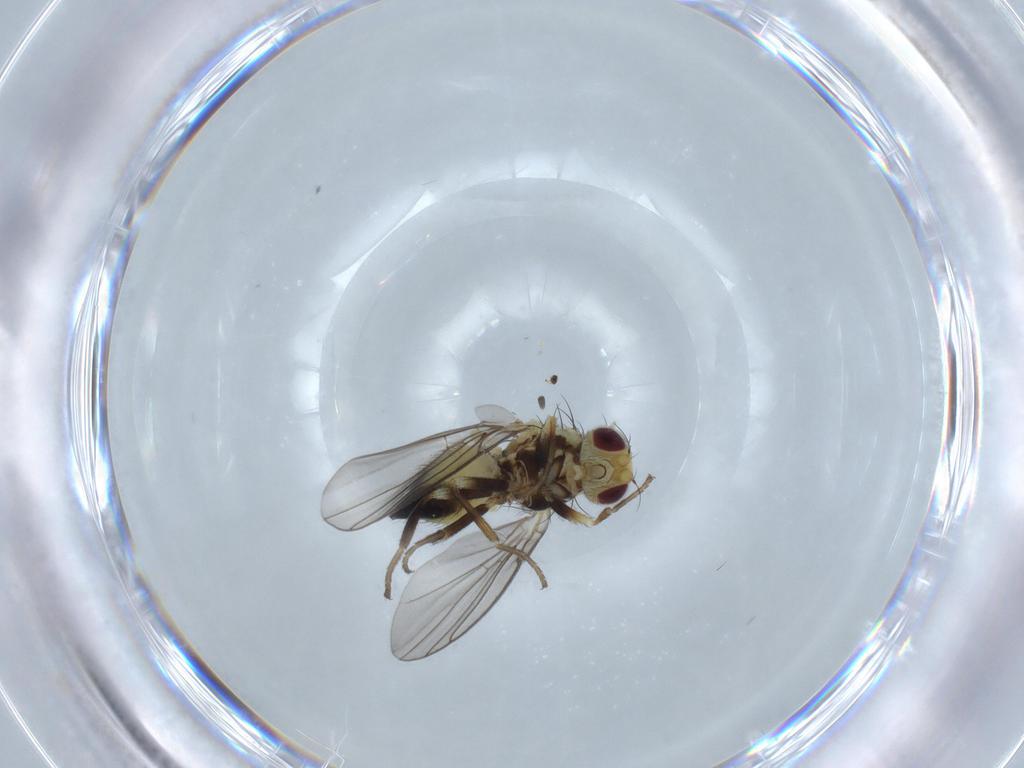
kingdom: Animalia
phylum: Arthropoda
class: Insecta
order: Diptera
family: Agromyzidae
